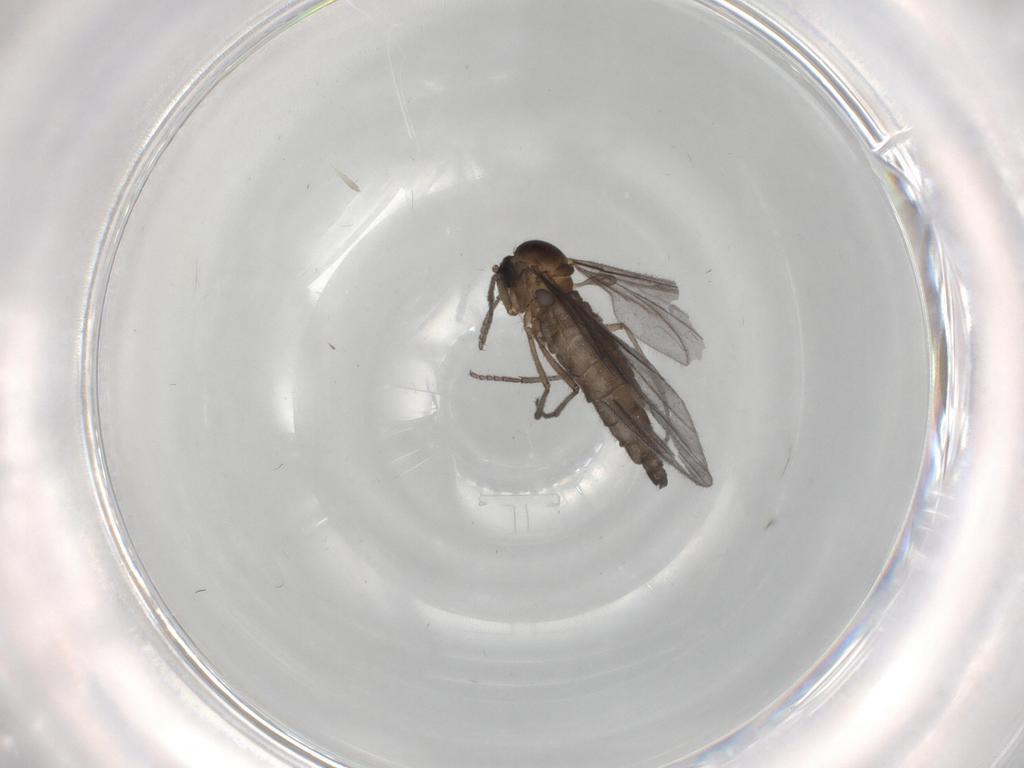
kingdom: Animalia
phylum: Arthropoda
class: Insecta
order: Diptera
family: Sciaridae
